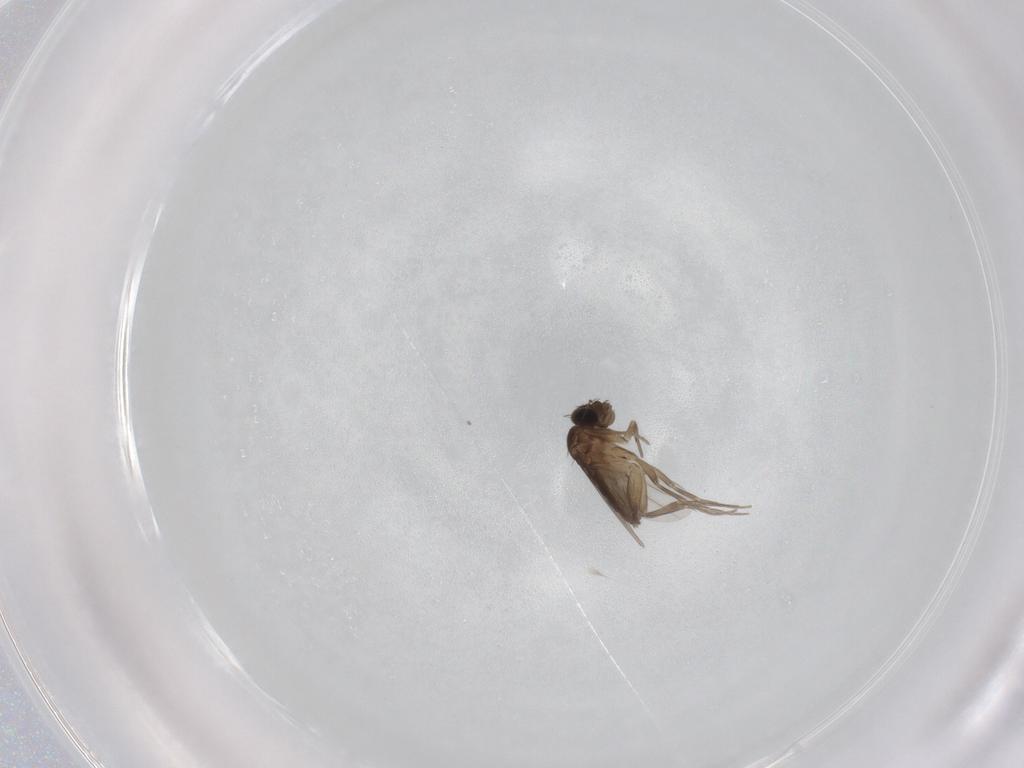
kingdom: Animalia
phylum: Arthropoda
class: Insecta
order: Diptera
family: Phoridae
